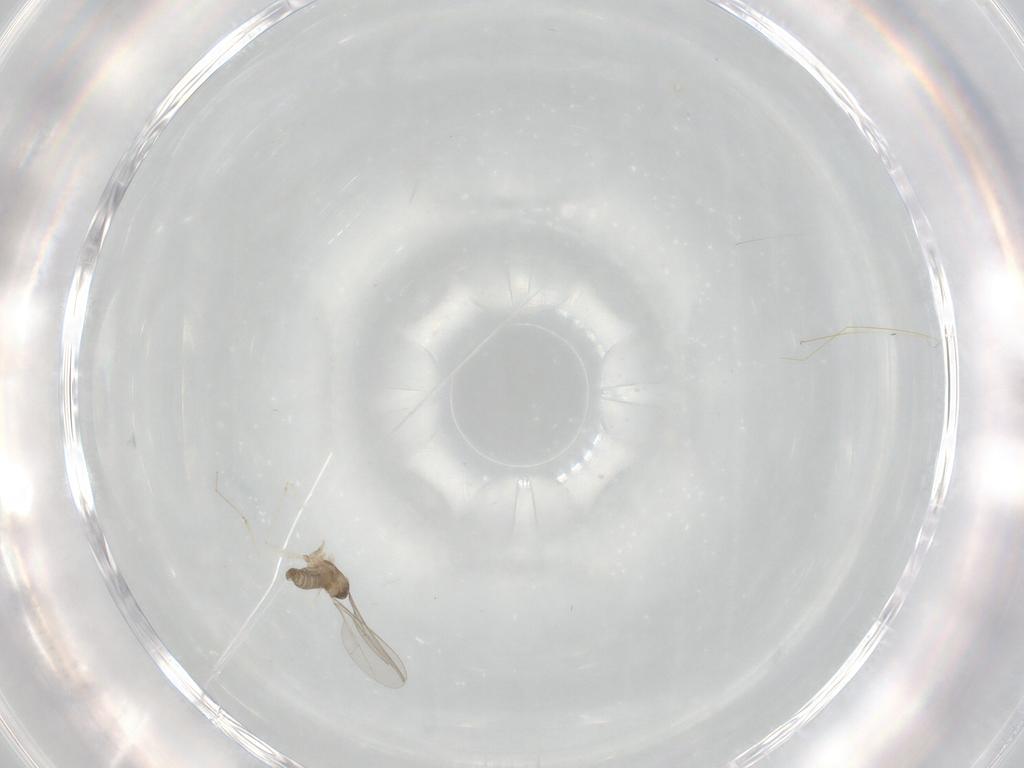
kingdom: Animalia
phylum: Arthropoda
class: Insecta
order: Diptera
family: Cecidomyiidae
